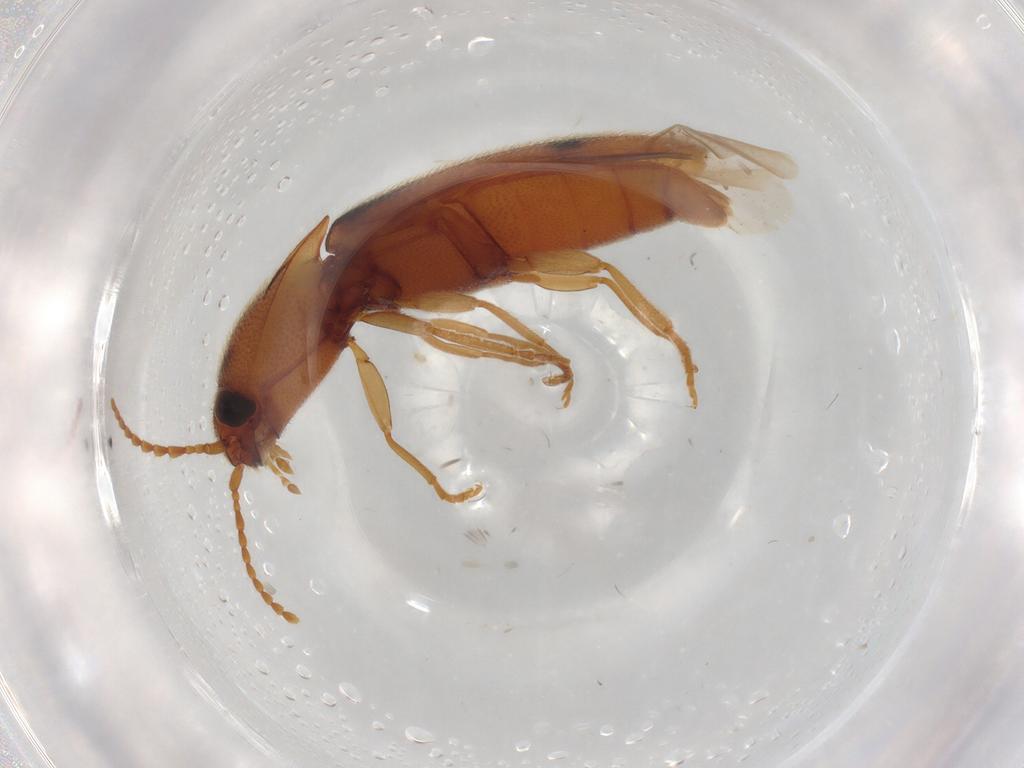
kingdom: Animalia
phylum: Arthropoda
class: Insecta
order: Coleoptera
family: Elateridae
